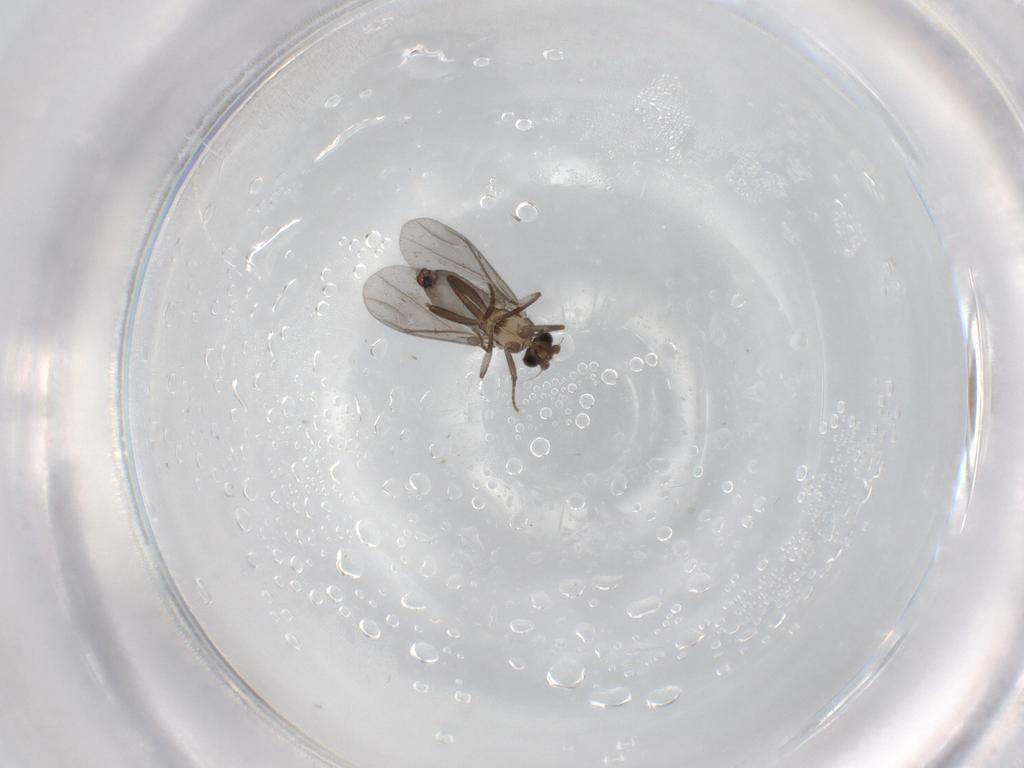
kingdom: Animalia
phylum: Arthropoda
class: Insecta
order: Diptera
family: Phoridae
